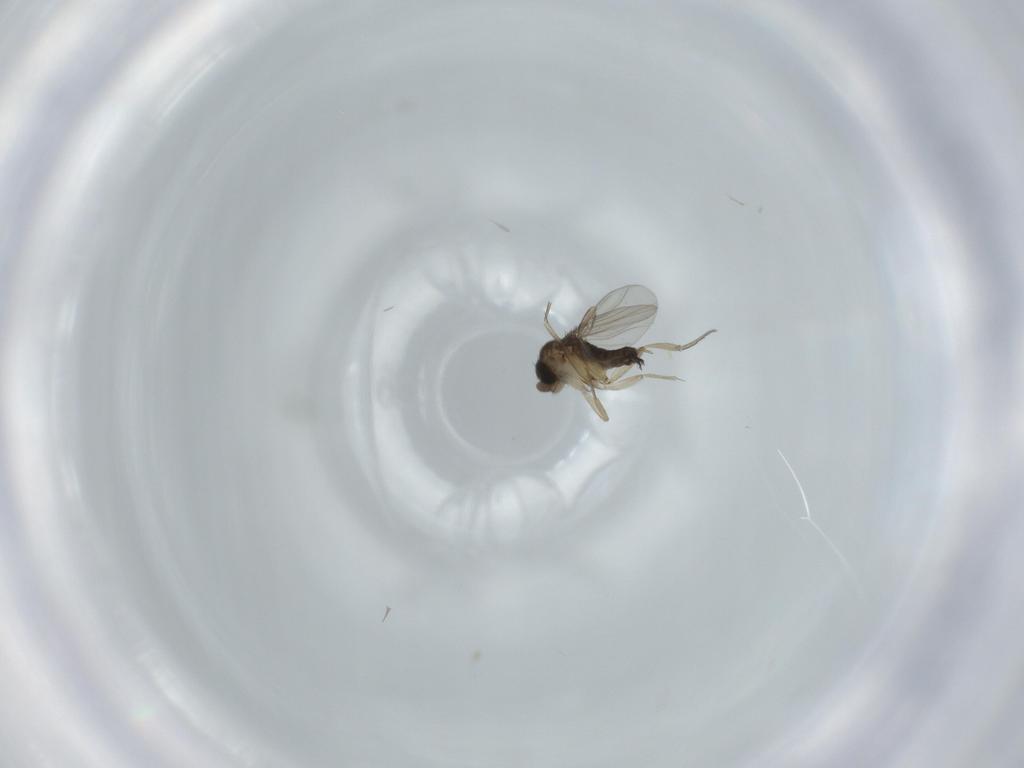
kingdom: Animalia
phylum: Arthropoda
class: Insecta
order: Diptera
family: Phoridae
